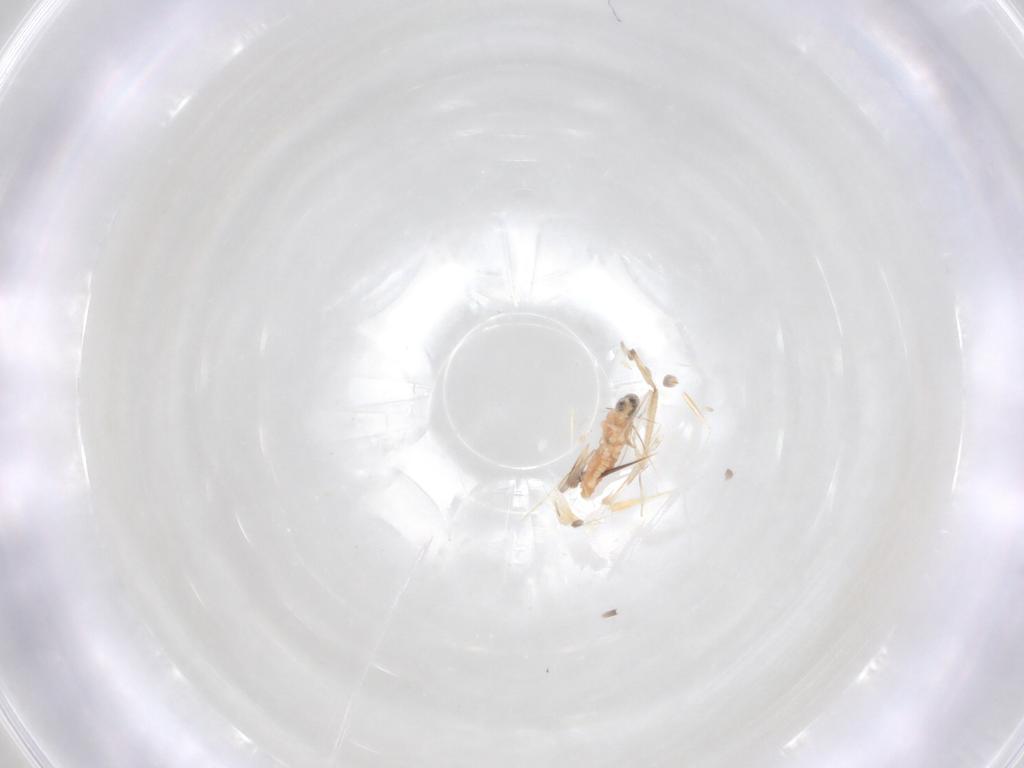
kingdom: Animalia
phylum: Arthropoda
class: Insecta
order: Diptera
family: Cecidomyiidae
